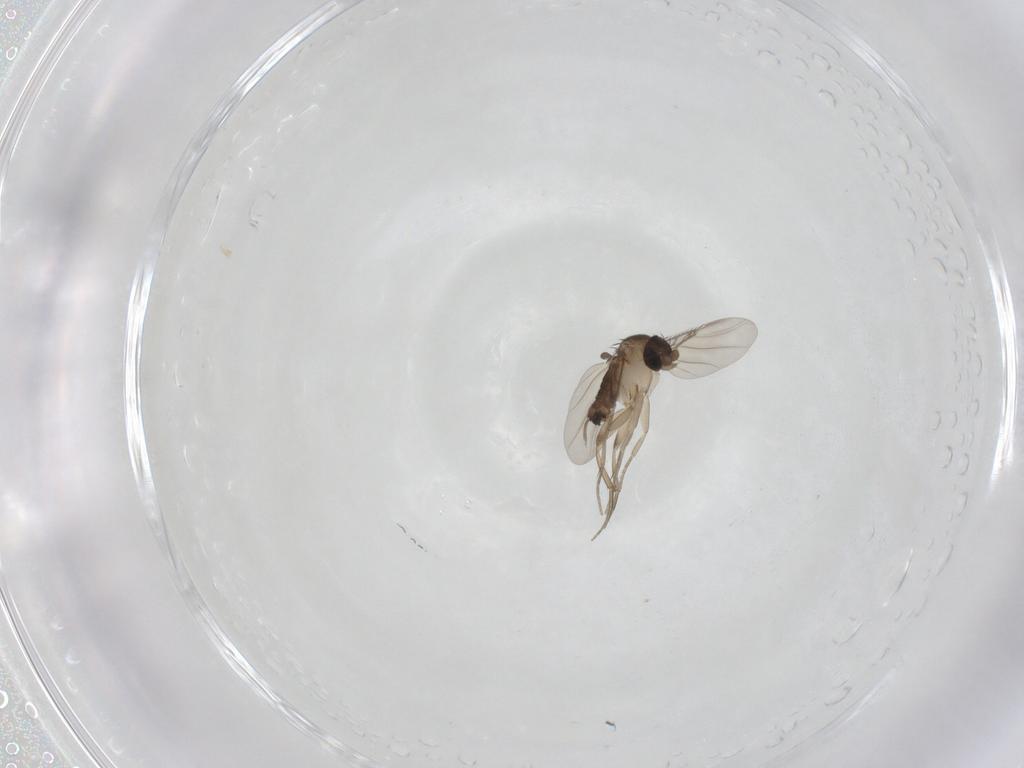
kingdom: Animalia
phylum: Arthropoda
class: Insecta
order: Diptera
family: Phoridae
